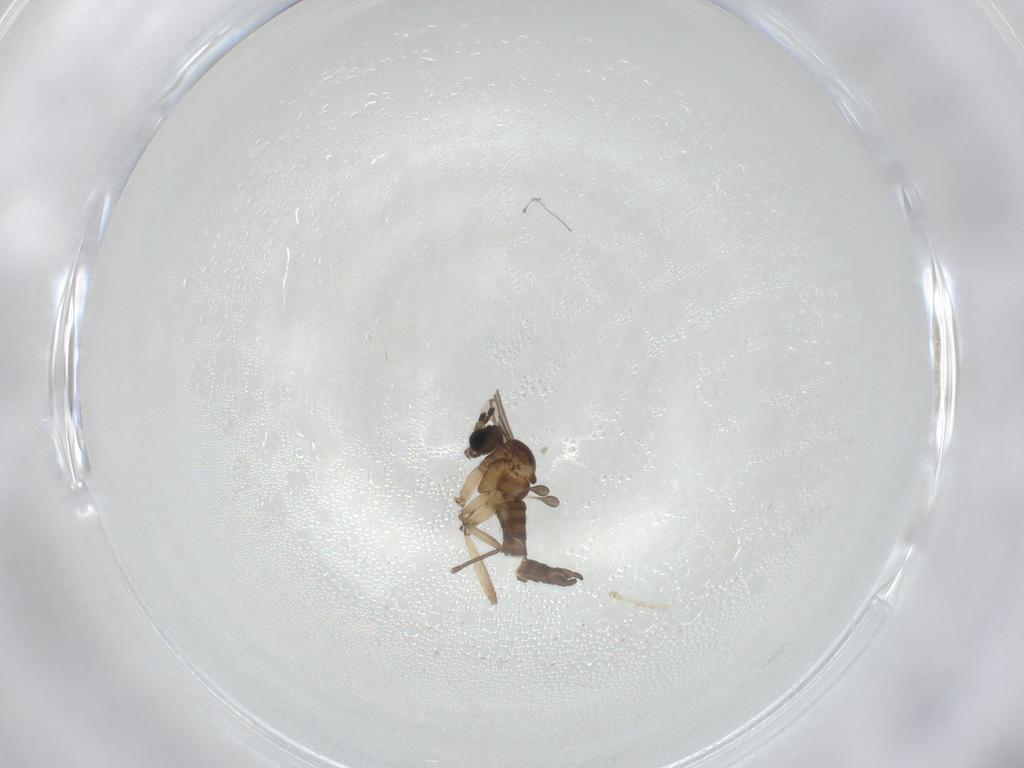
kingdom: Animalia
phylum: Arthropoda
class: Insecta
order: Diptera
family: Sciaridae
